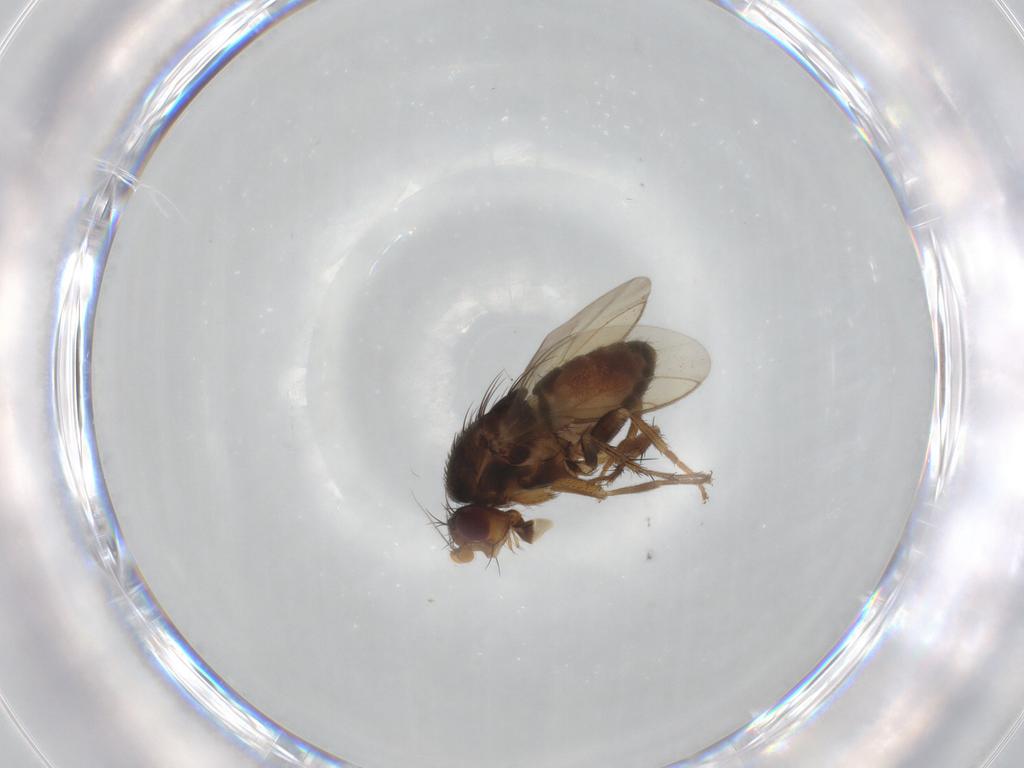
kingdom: Animalia
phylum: Arthropoda
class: Insecta
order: Diptera
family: Sphaeroceridae
